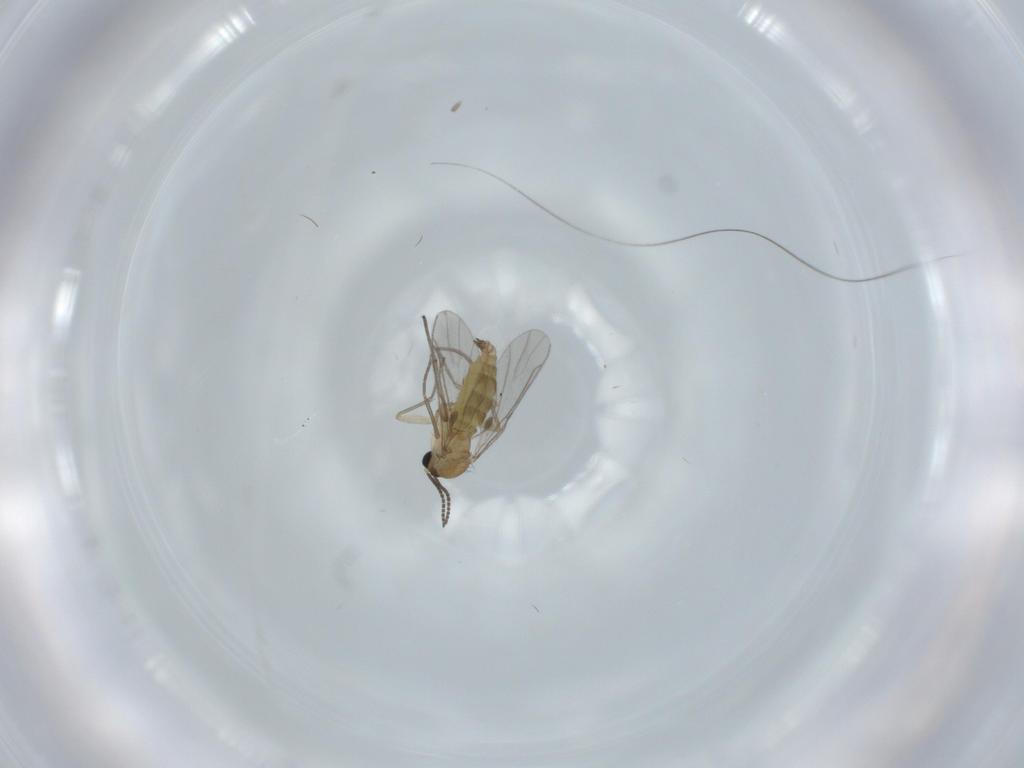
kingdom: Animalia
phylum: Arthropoda
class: Insecta
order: Diptera
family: Sciaridae
